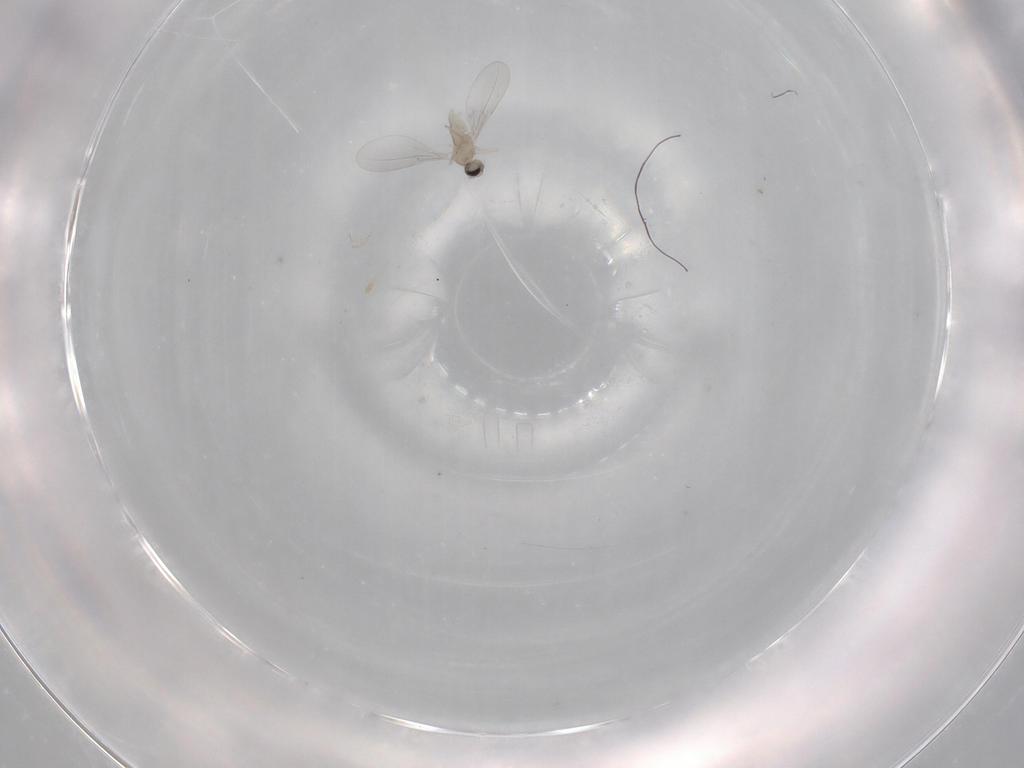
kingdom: Animalia
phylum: Arthropoda
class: Insecta
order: Diptera
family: Cecidomyiidae
